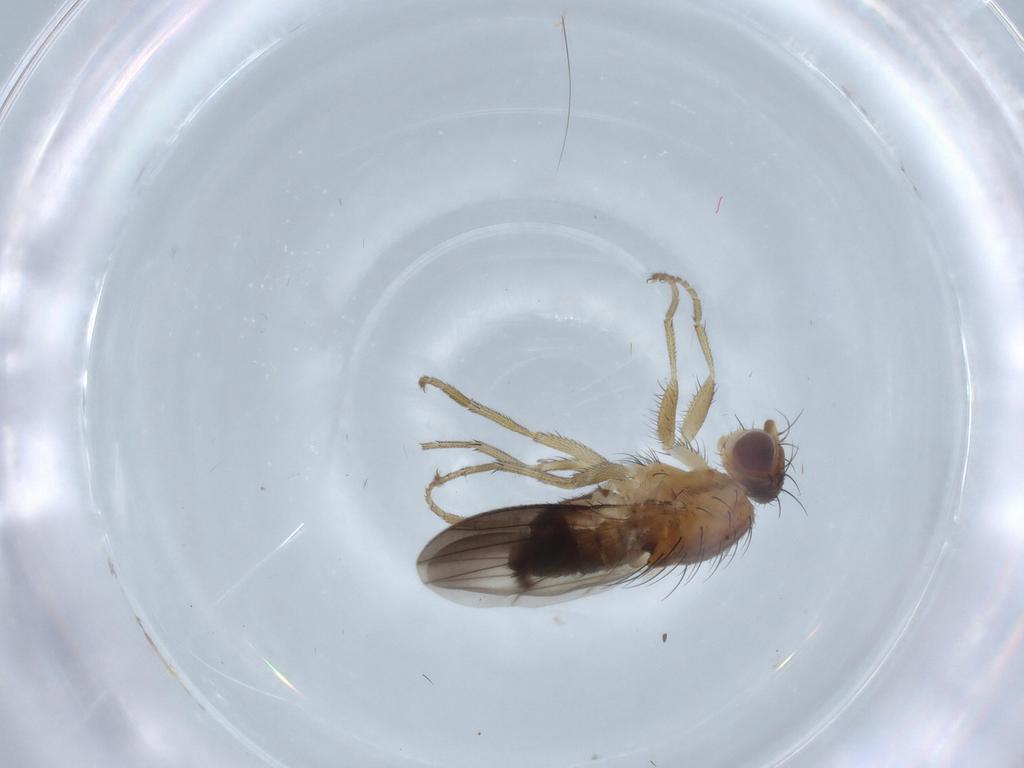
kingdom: Animalia
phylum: Arthropoda
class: Insecta
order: Diptera
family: Heleomyzidae
